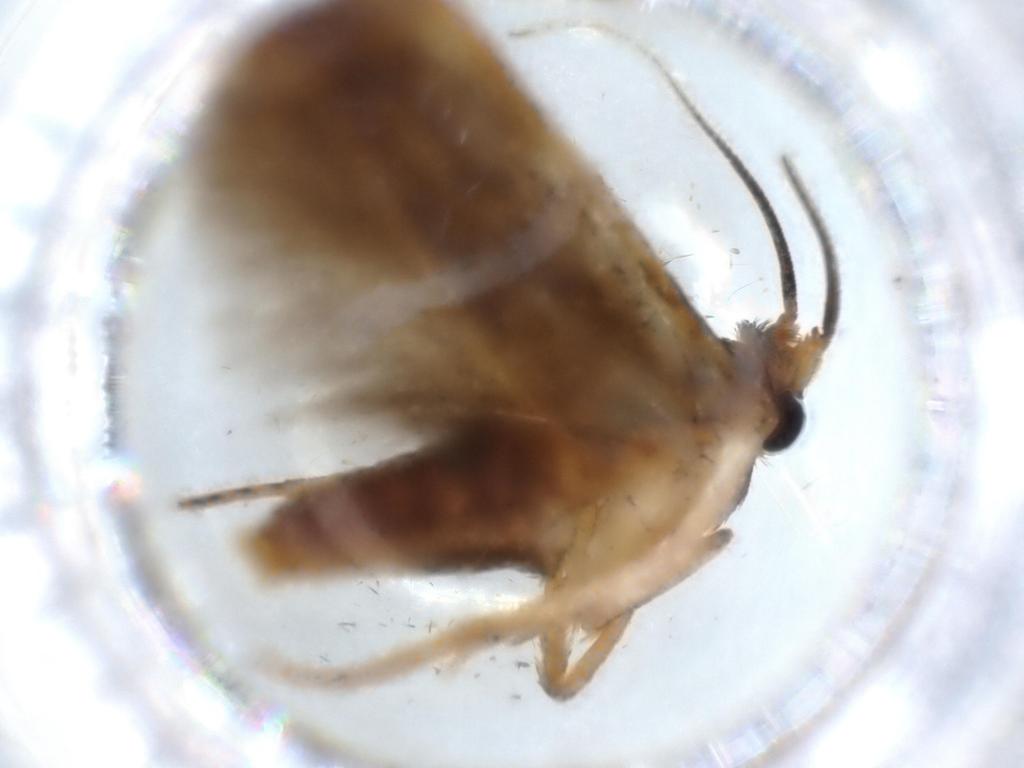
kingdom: Animalia
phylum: Arthropoda
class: Insecta
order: Lepidoptera
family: Blastobasidae
